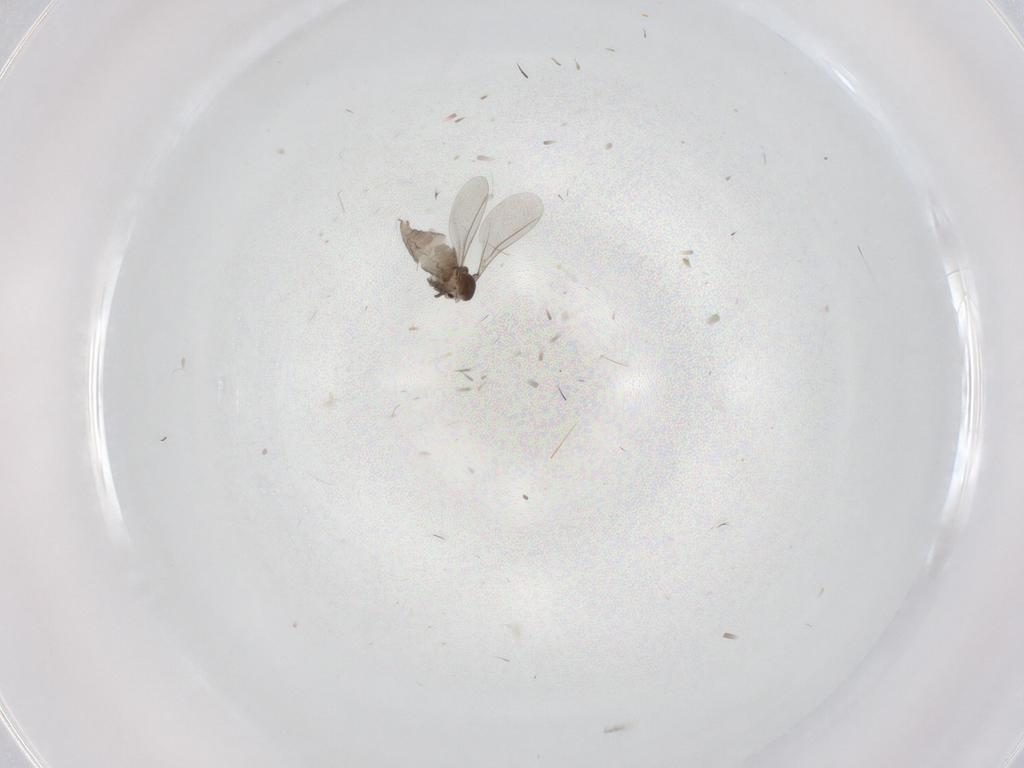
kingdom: Animalia
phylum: Arthropoda
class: Insecta
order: Diptera
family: Cecidomyiidae
